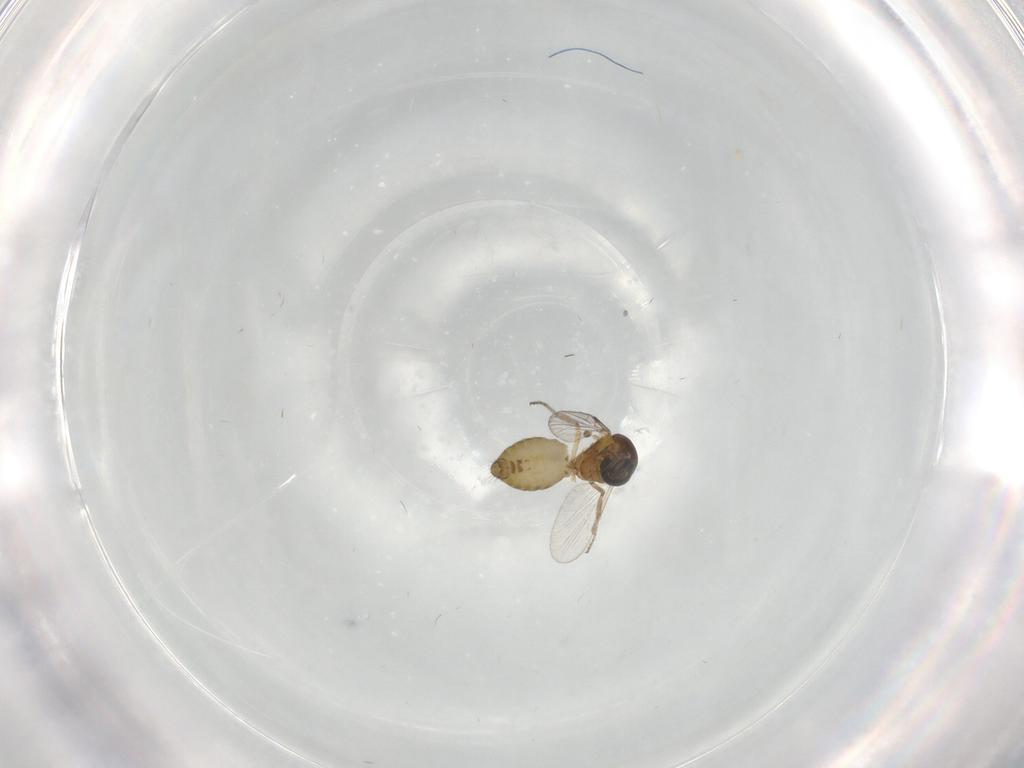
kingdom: Animalia
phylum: Arthropoda
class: Insecta
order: Diptera
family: Ceratopogonidae
